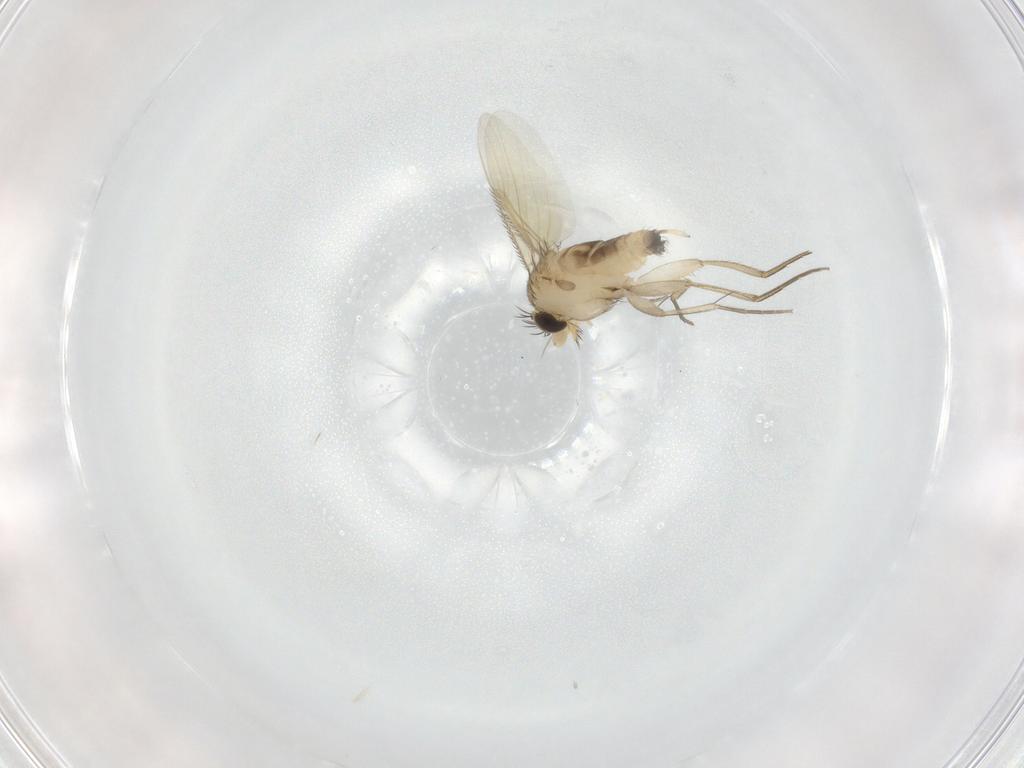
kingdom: Animalia
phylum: Arthropoda
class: Insecta
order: Diptera
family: Phoridae
